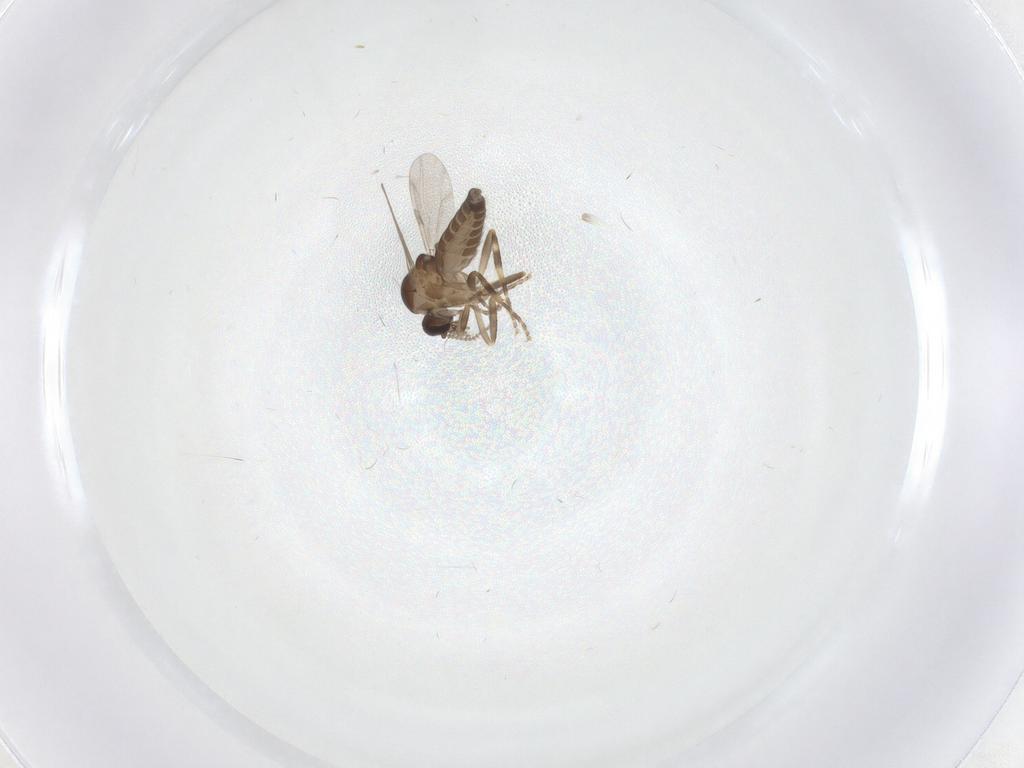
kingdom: Animalia
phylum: Arthropoda
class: Insecta
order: Diptera
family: Ceratopogonidae
